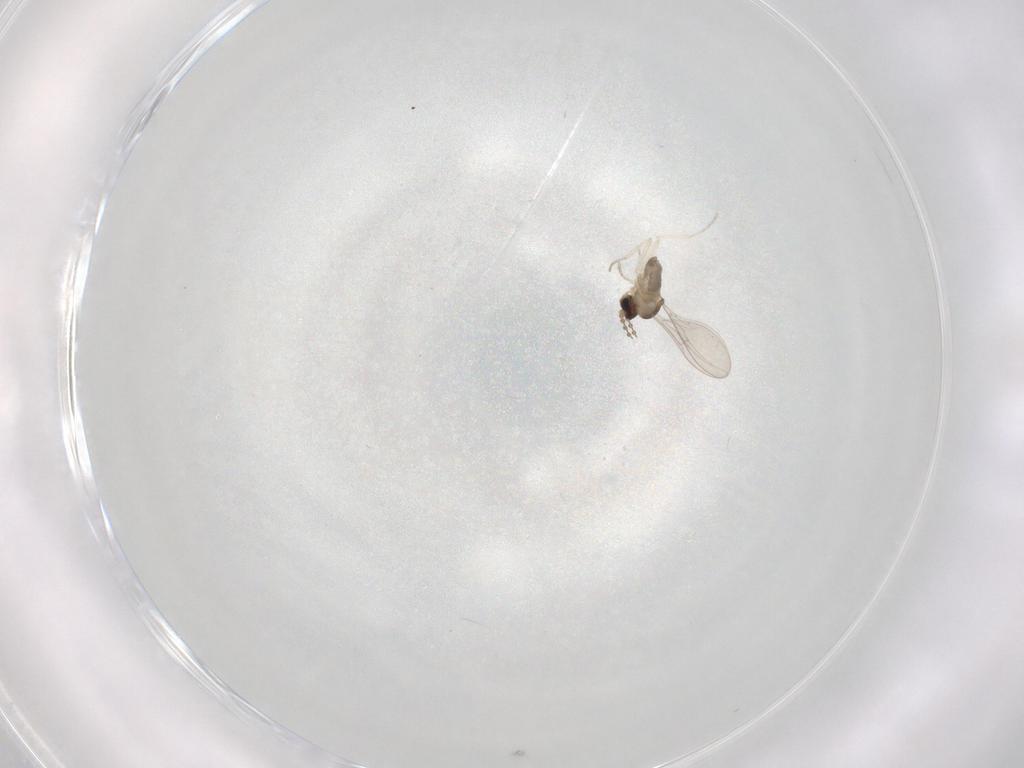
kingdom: Animalia
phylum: Arthropoda
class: Insecta
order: Diptera
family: Cecidomyiidae
